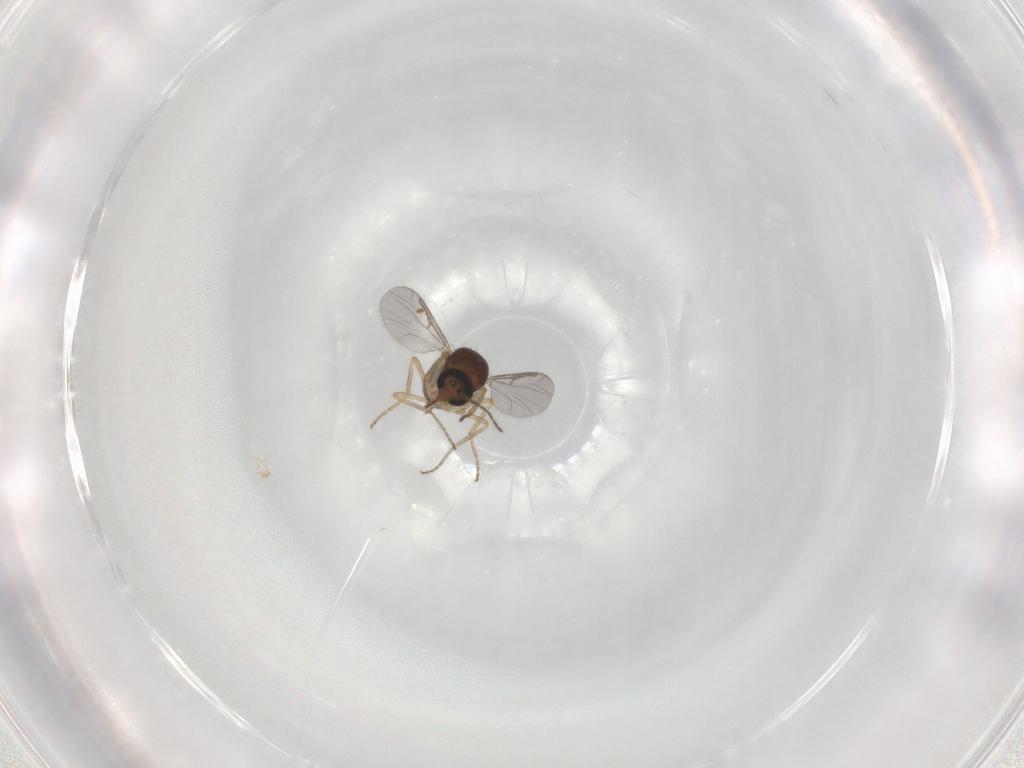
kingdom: Animalia
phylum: Arthropoda
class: Insecta
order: Diptera
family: Ceratopogonidae
